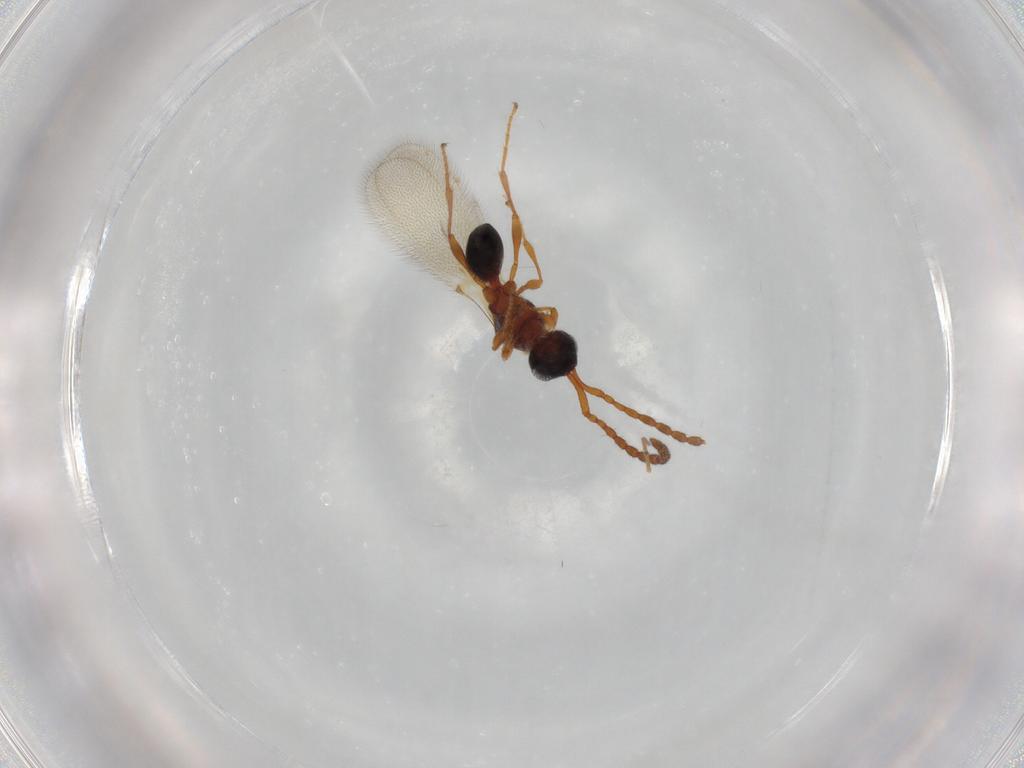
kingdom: Animalia
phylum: Arthropoda
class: Insecta
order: Hymenoptera
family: Diapriidae
